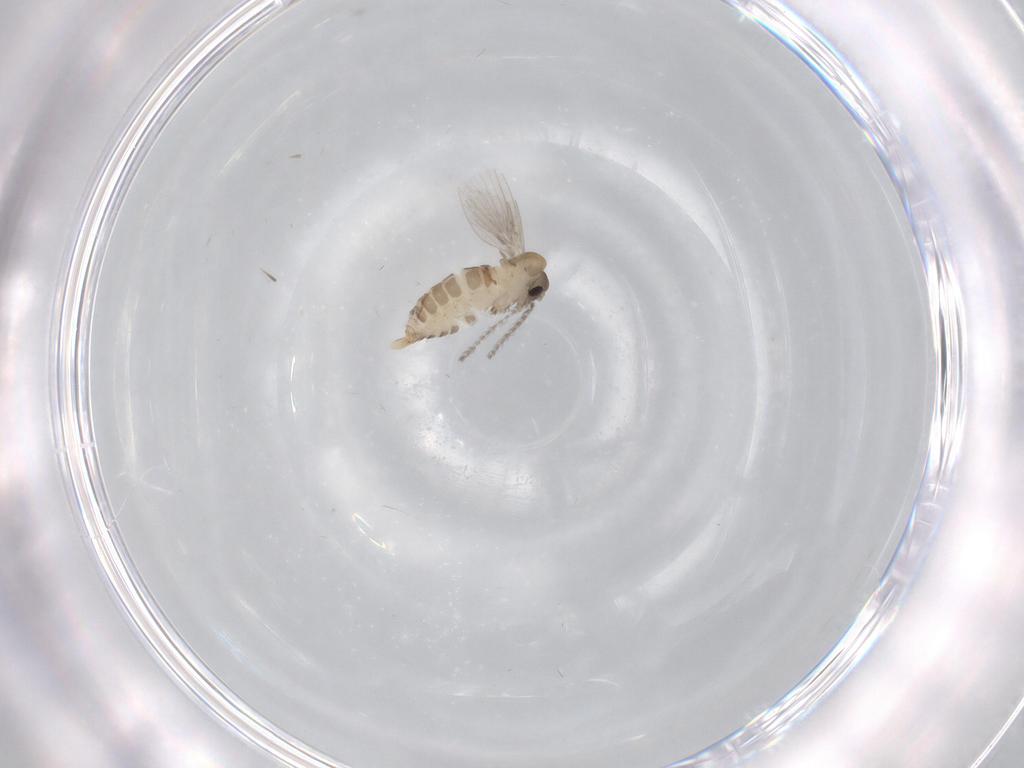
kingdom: Animalia
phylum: Arthropoda
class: Insecta
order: Diptera
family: Psychodidae
